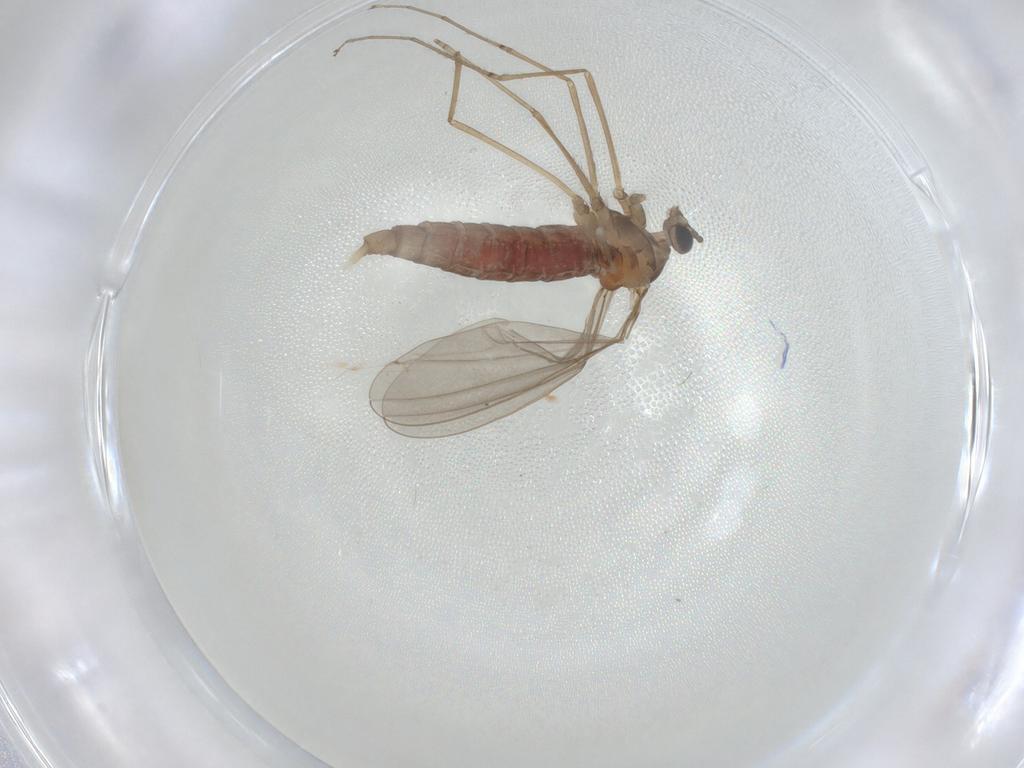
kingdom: Animalia
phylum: Arthropoda
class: Insecta
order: Diptera
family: Cecidomyiidae
